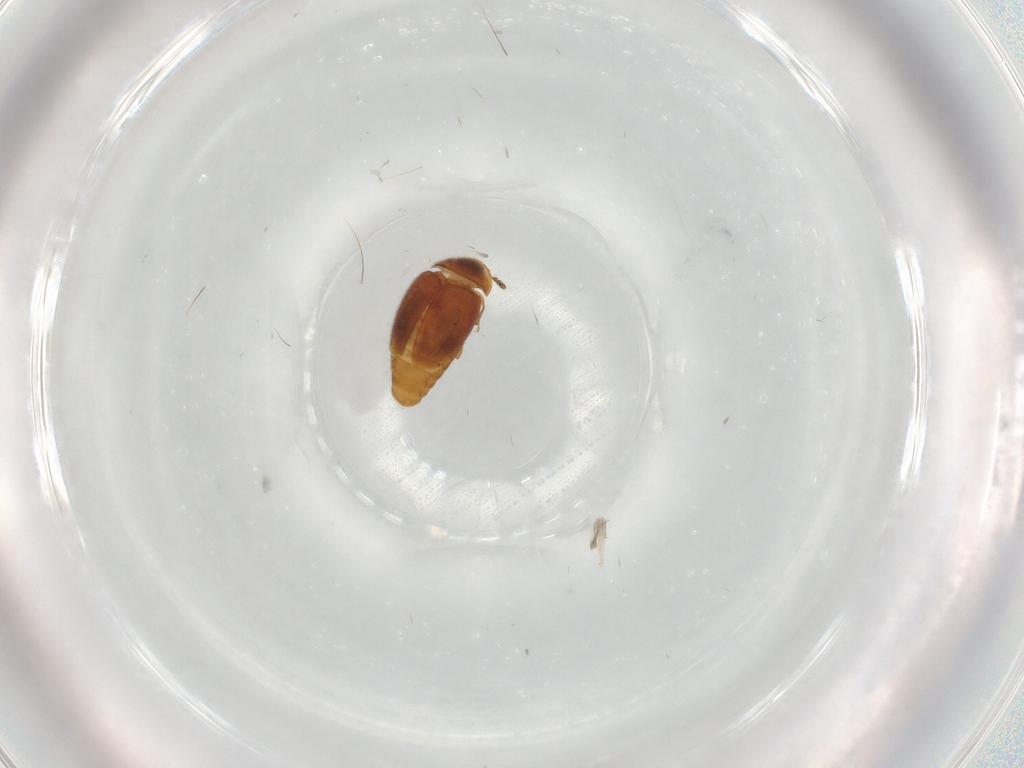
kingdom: Animalia
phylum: Arthropoda
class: Insecta
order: Coleoptera
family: Corylophidae
